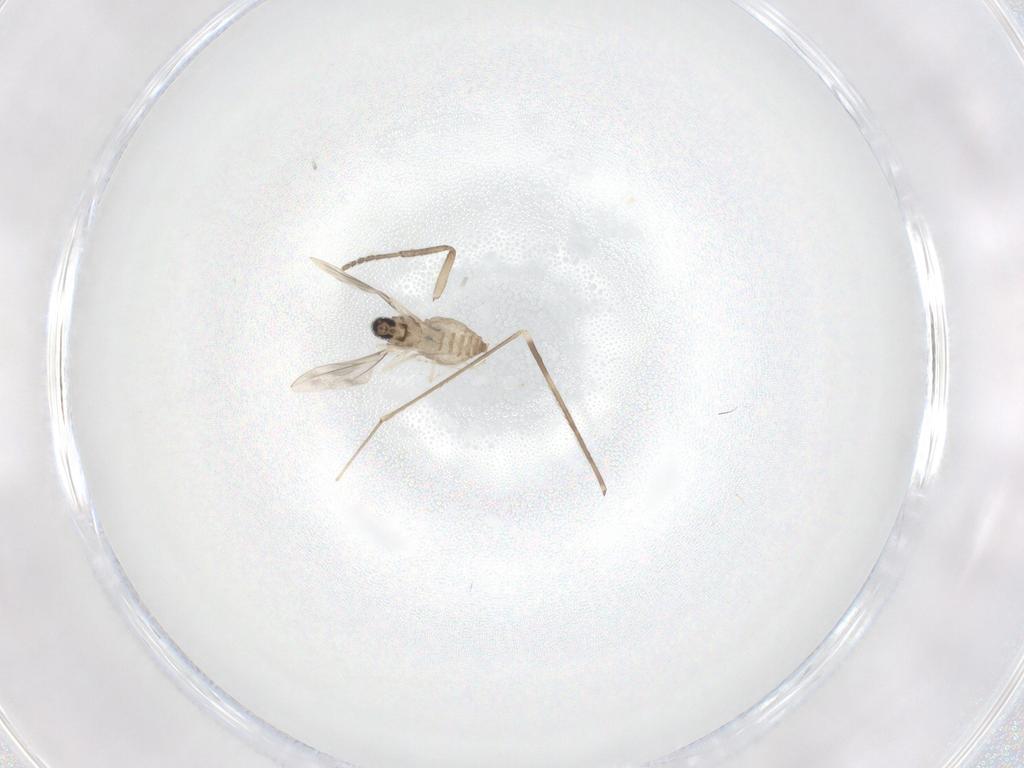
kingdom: Animalia
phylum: Arthropoda
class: Insecta
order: Diptera
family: Psychodidae
